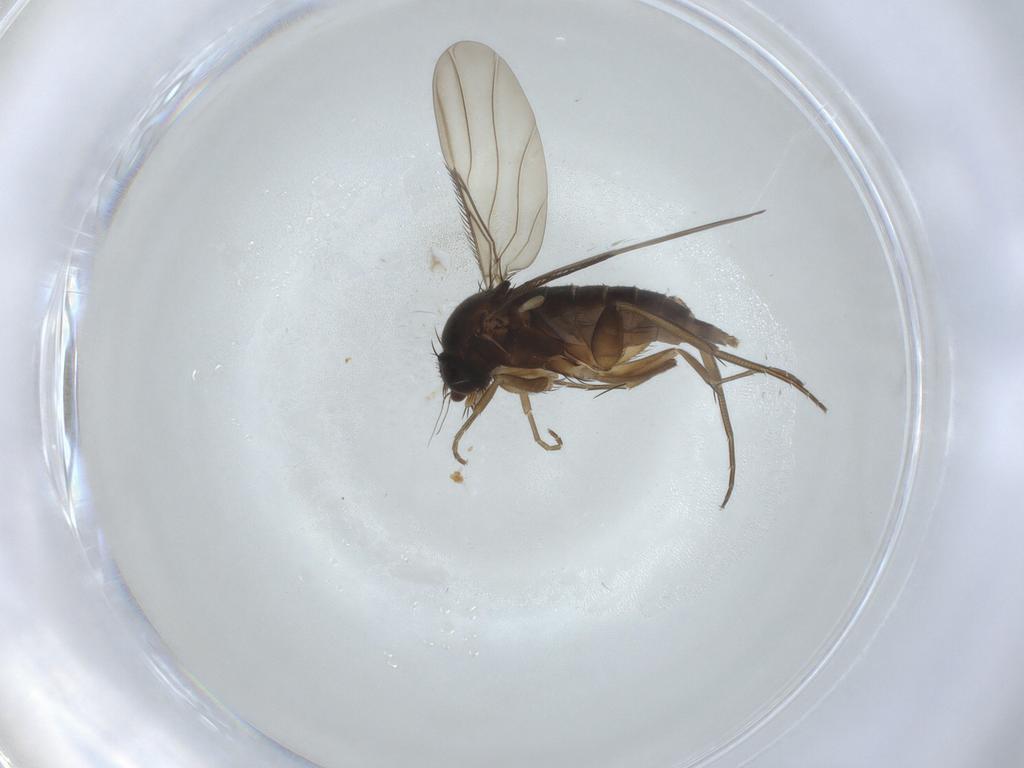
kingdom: Animalia
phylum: Arthropoda
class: Insecta
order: Diptera
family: Phoridae
